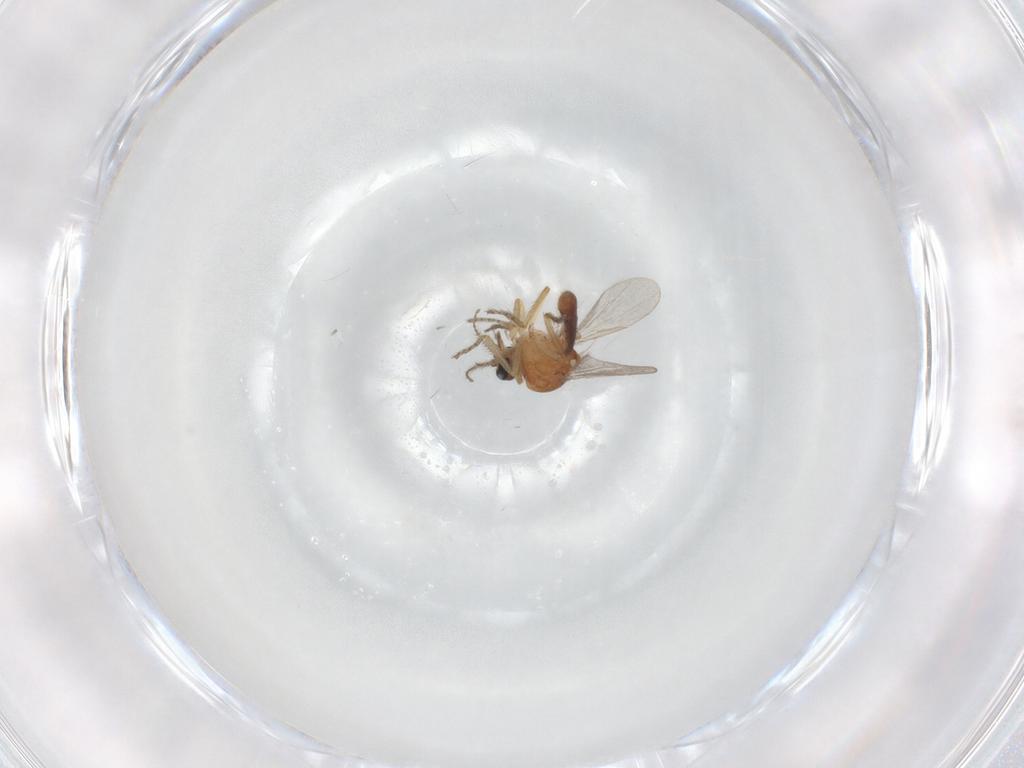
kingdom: Animalia
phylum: Arthropoda
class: Insecta
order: Diptera
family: Ceratopogonidae
